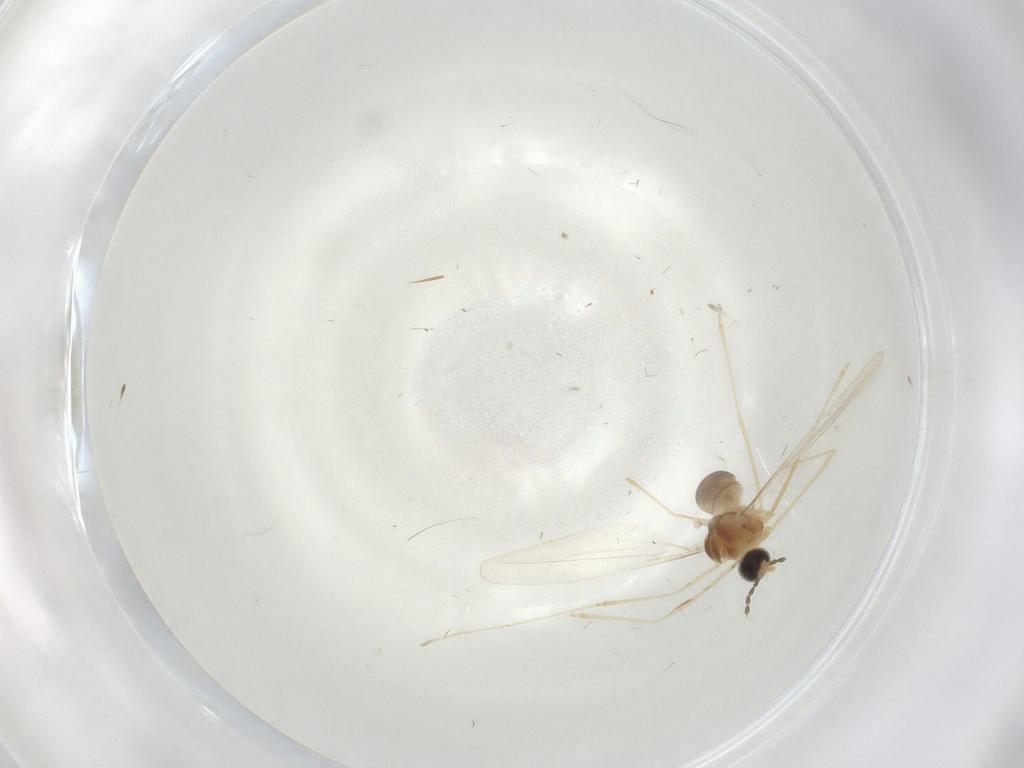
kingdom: Animalia
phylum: Arthropoda
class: Insecta
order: Diptera
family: Cecidomyiidae
